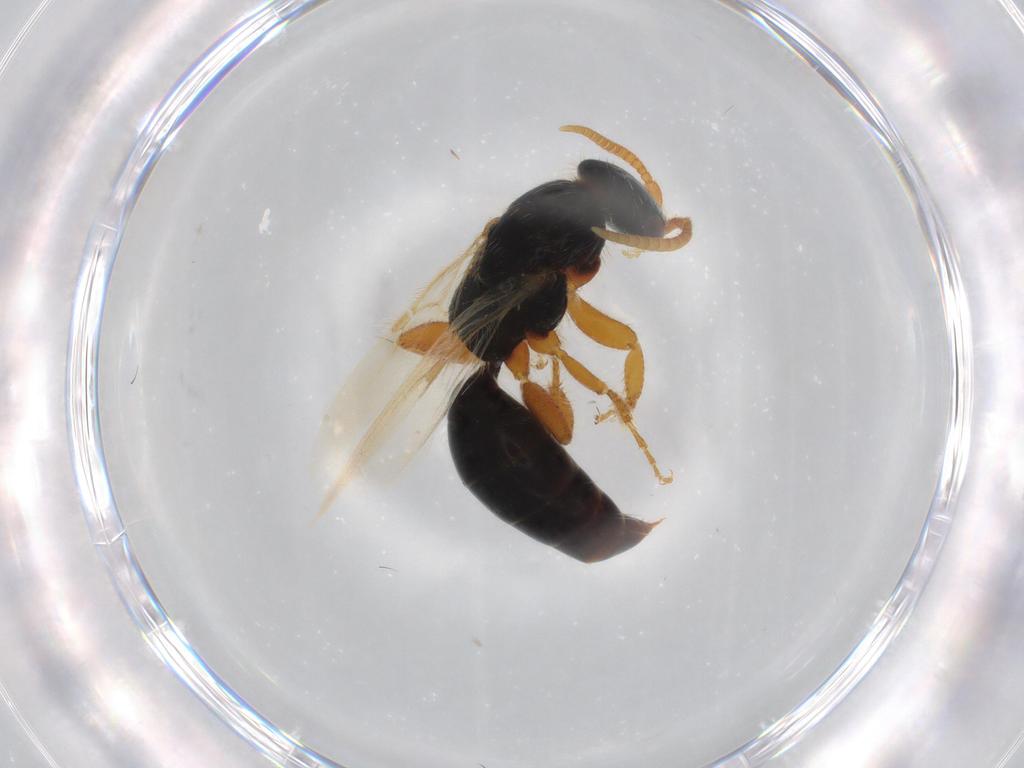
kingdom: Animalia
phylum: Arthropoda
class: Insecta
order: Hymenoptera
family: Bethylidae
